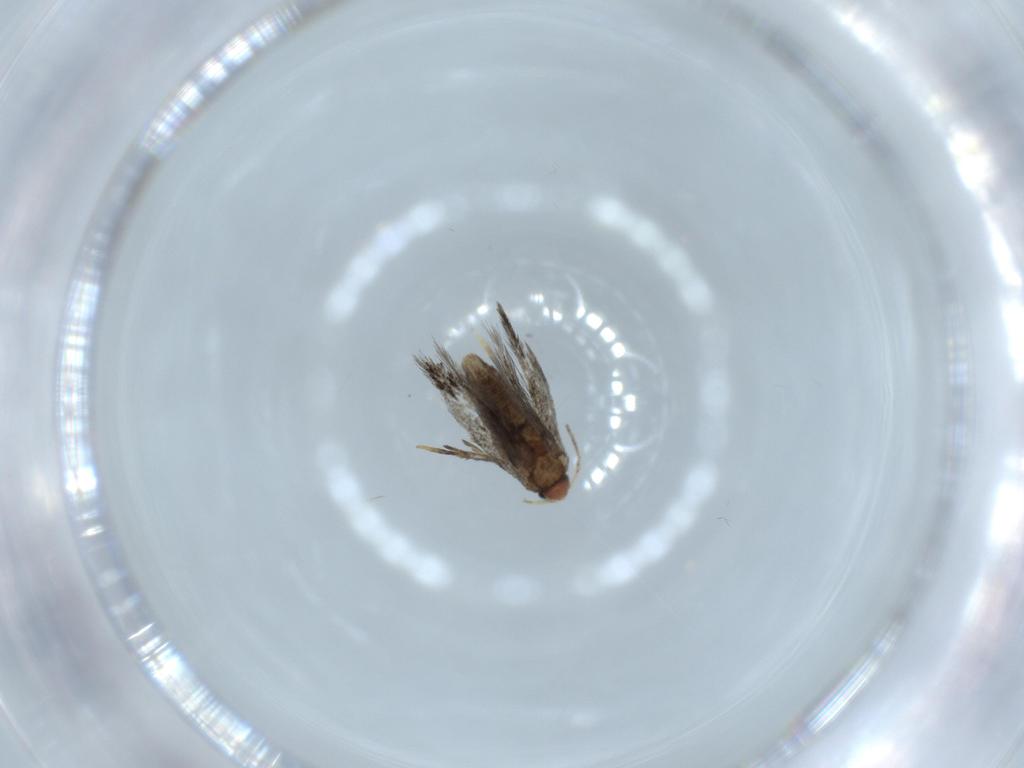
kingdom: Animalia
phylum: Arthropoda
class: Insecta
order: Lepidoptera
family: Nepticulidae
